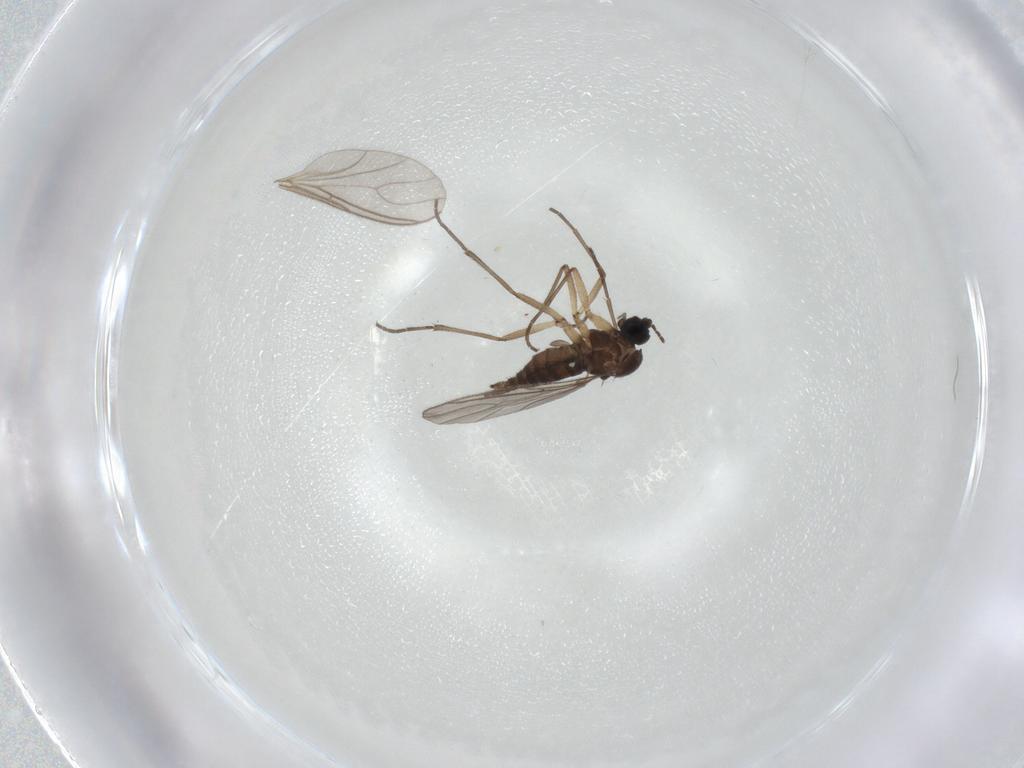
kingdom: Animalia
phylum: Arthropoda
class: Insecta
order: Diptera
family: Sciaridae
